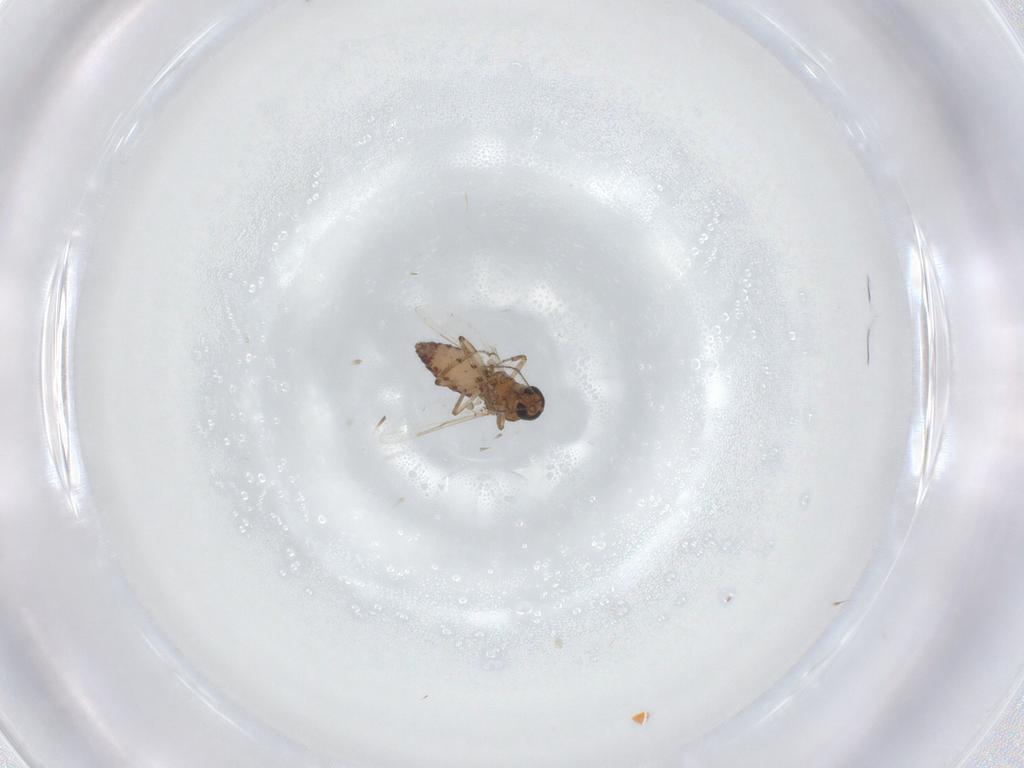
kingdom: Animalia
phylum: Arthropoda
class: Insecta
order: Diptera
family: Ceratopogonidae
